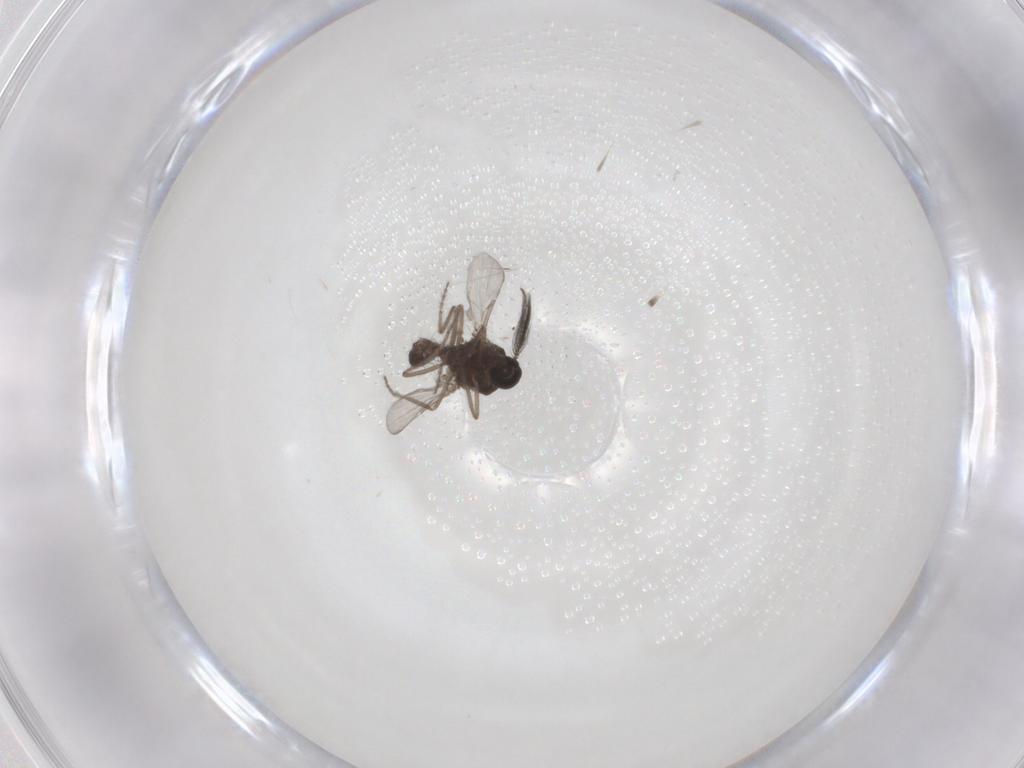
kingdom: Animalia
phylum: Arthropoda
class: Insecta
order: Diptera
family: Ceratopogonidae
